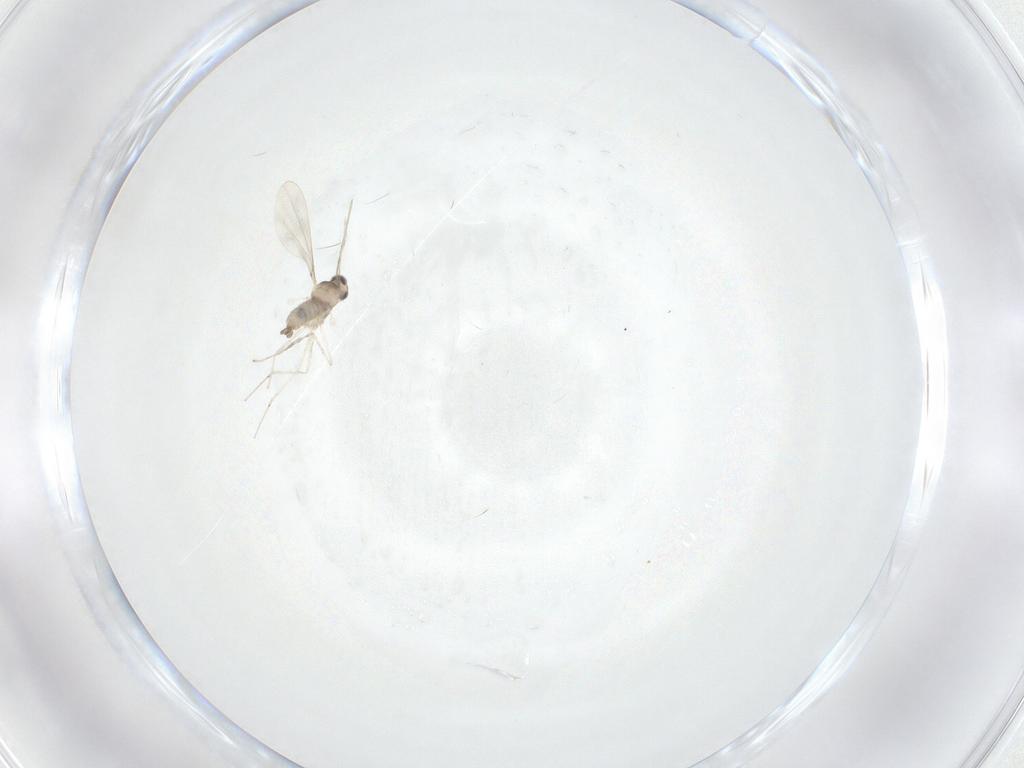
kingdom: Animalia
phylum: Arthropoda
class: Insecta
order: Diptera
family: Cecidomyiidae
